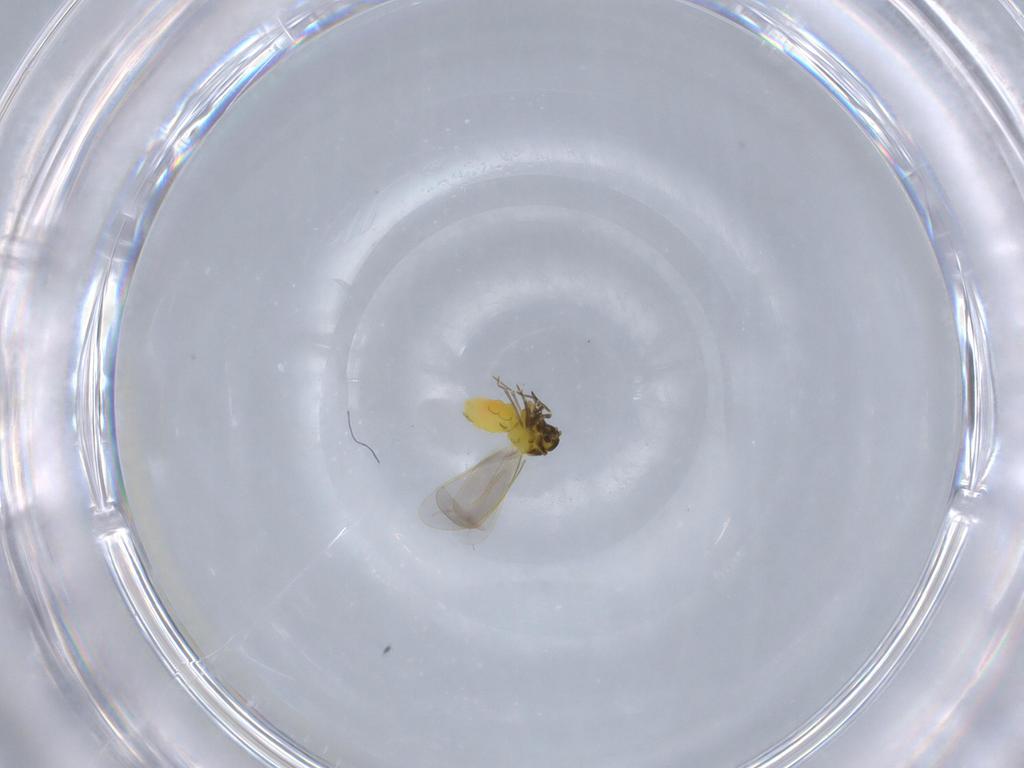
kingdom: Animalia
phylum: Arthropoda
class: Insecta
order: Hemiptera
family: Aleyrodidae
